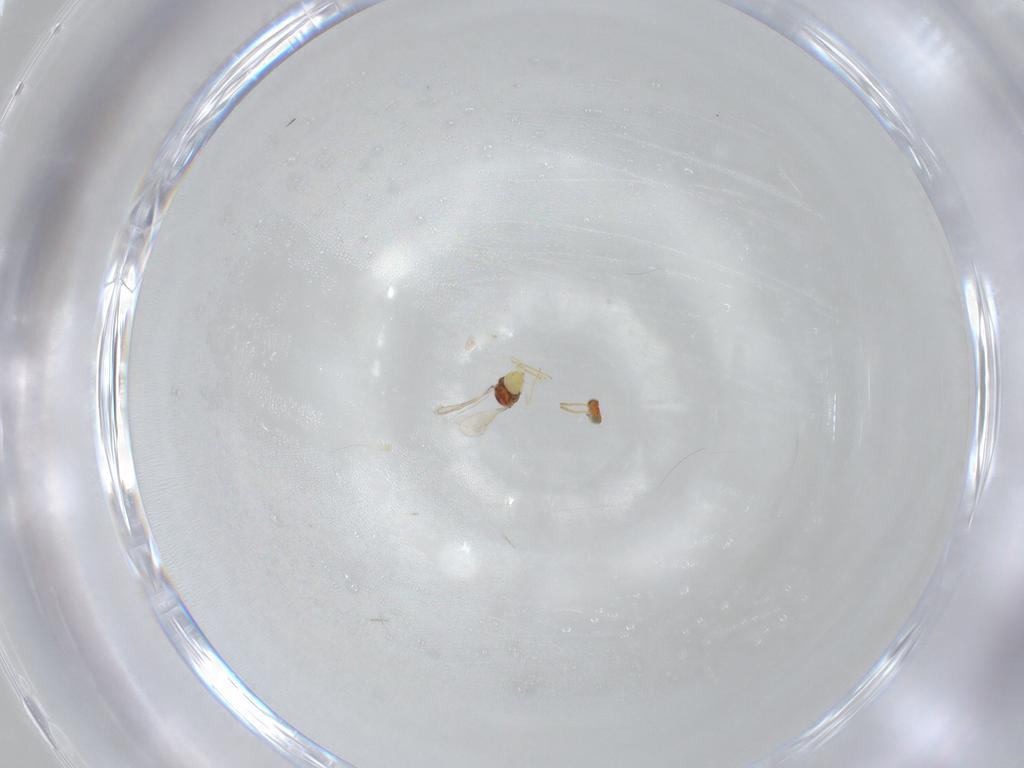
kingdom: Animalia
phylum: Arthropoda
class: Insecta
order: Hymenoptera
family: Aphelinidae
